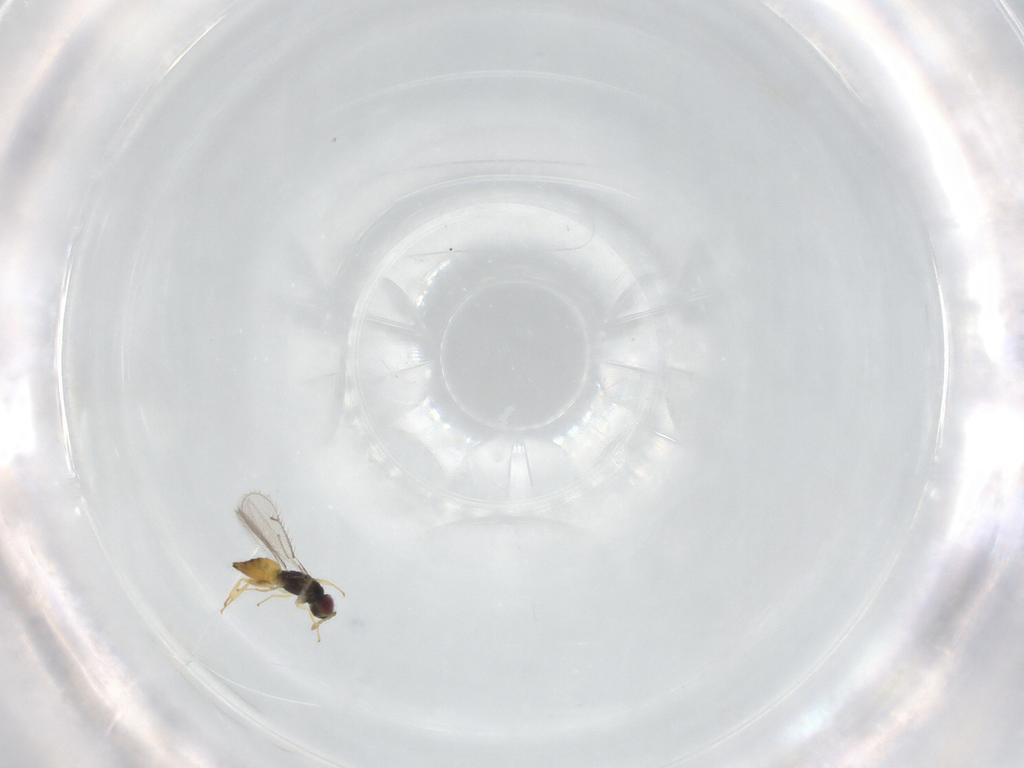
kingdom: Animalia
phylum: Arthropoda
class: Insecta
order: Hymenoptera
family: Eulophidae
